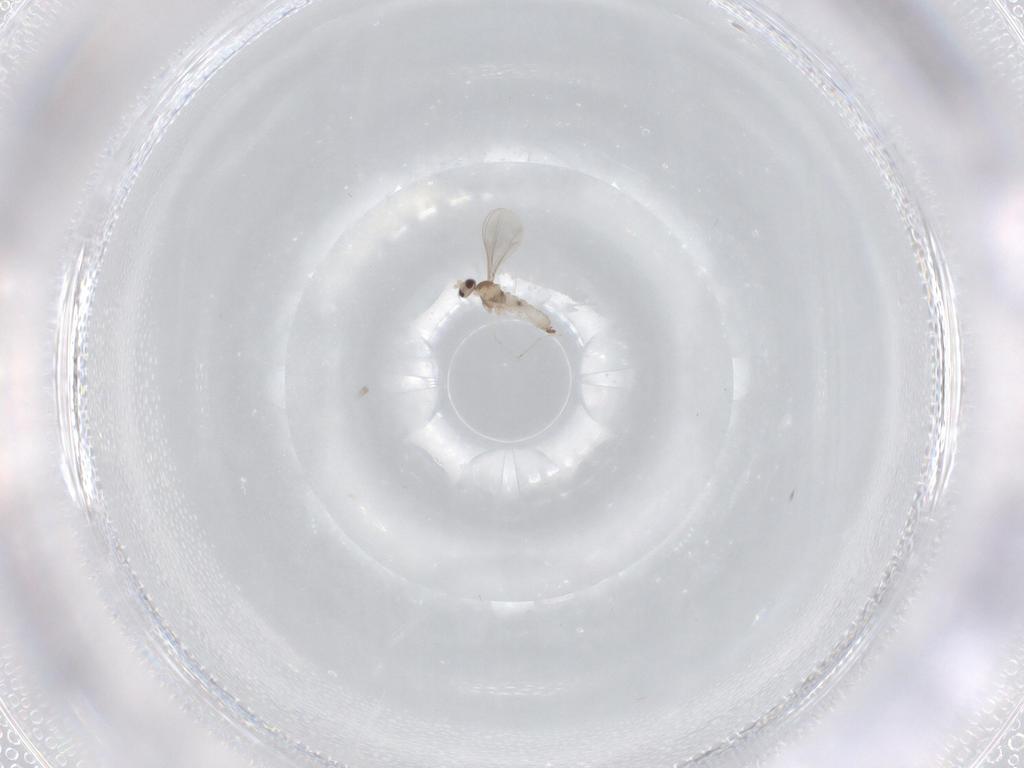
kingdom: Animalia
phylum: Arthropoda
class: Insecta
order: Diptera
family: Cecidomyiidae
